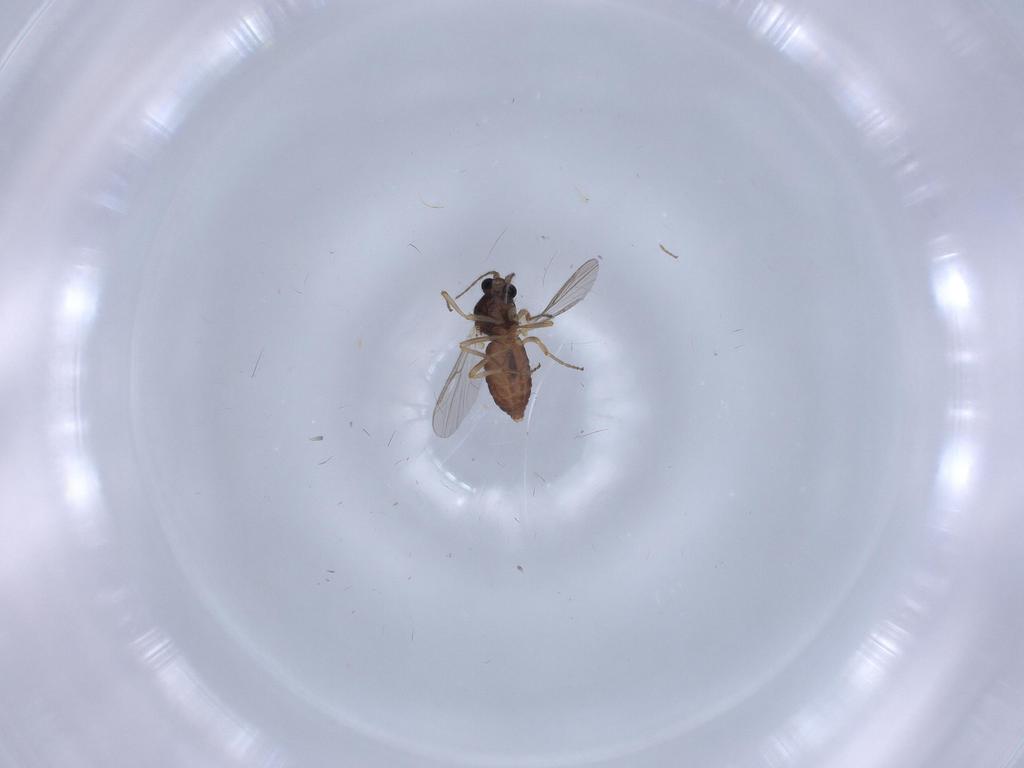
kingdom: Animalia
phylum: Arthropoda
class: Insecta
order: Diptera
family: Ceratopogonidae
